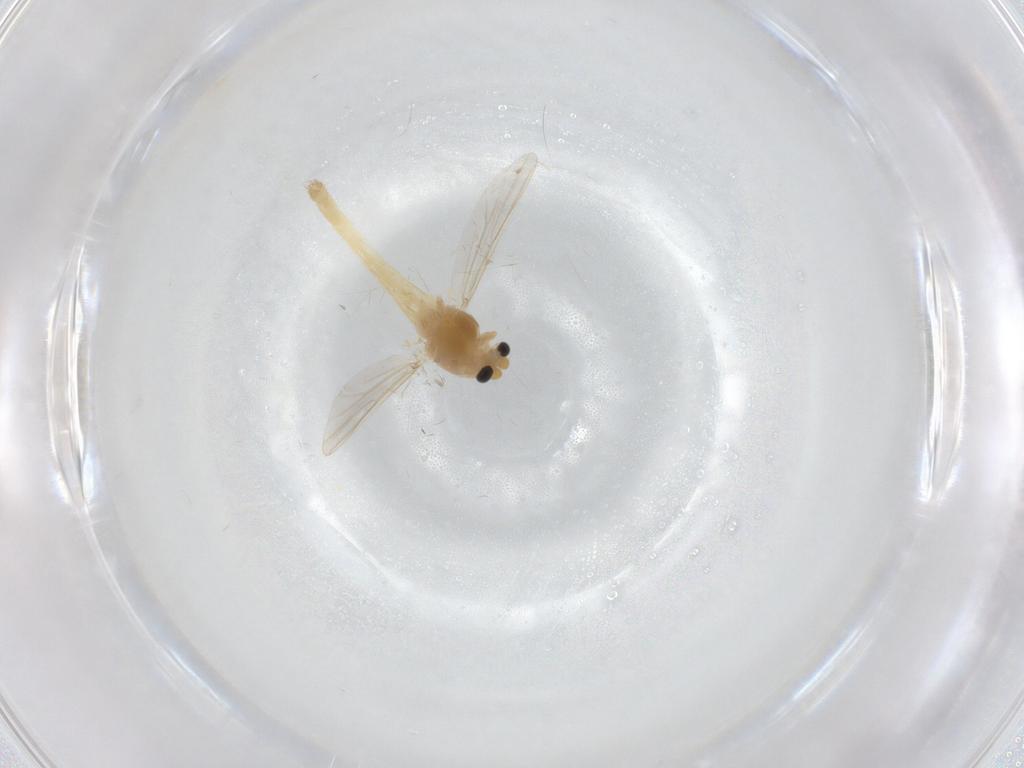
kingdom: Animalia
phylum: Arthropoda
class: Insecta
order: Diptera
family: Chironomidae
